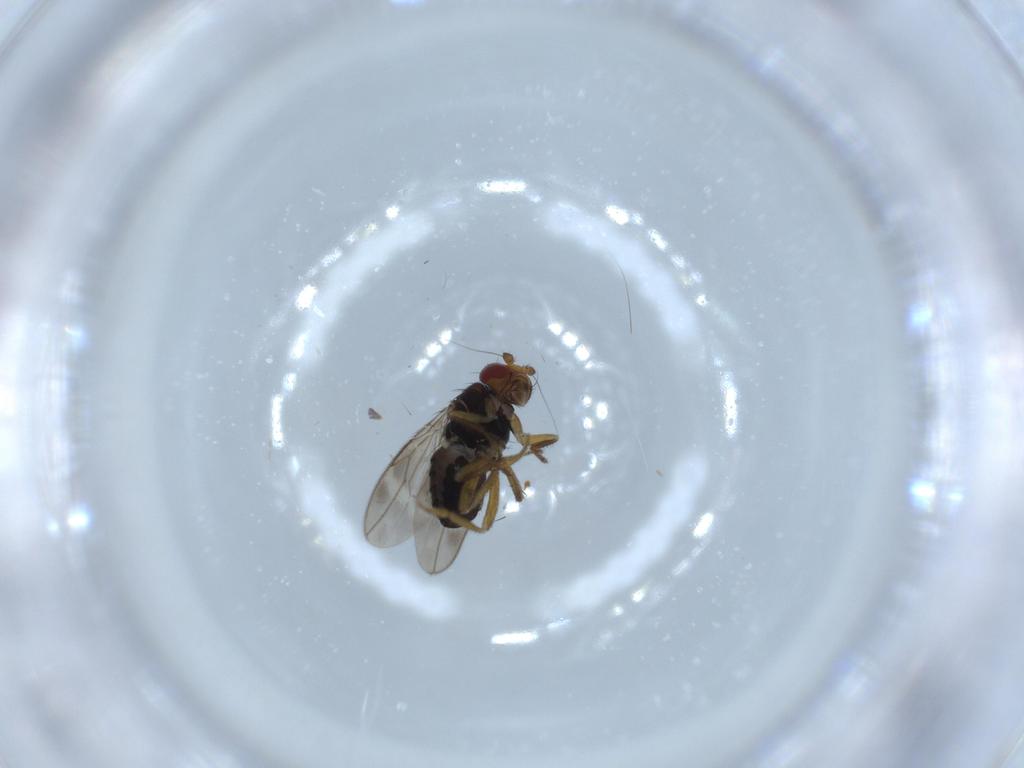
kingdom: Animalia
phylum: Arthropoda
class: Insecta
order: Diptera
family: Sphaeroceridae
